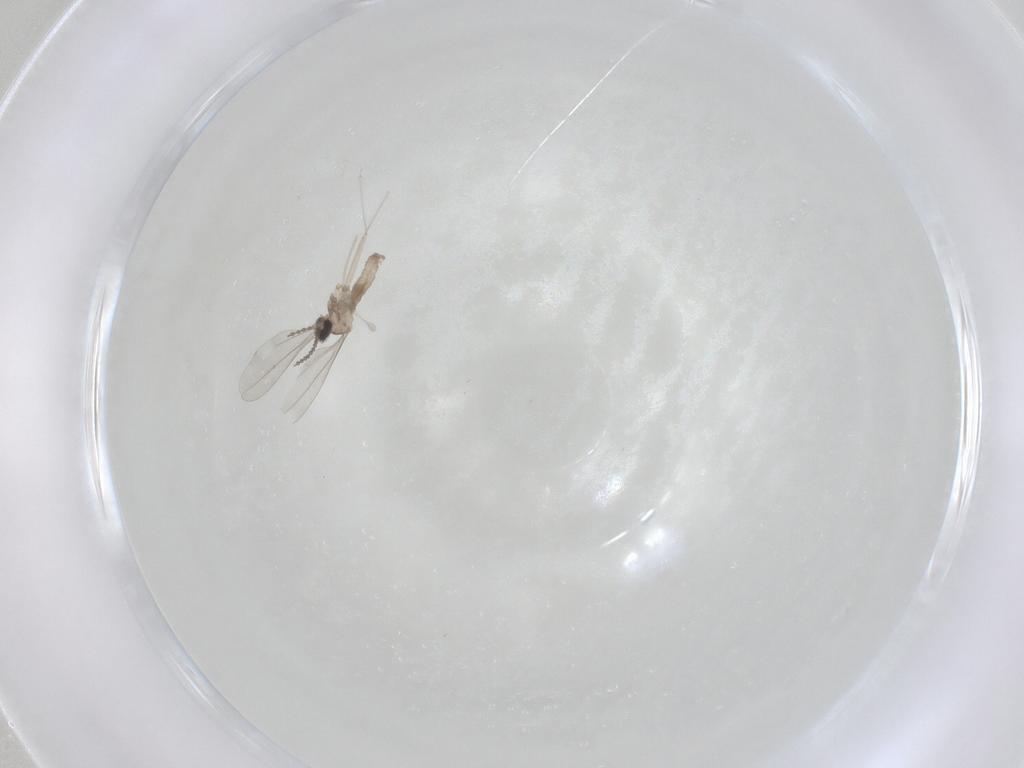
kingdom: Animalia
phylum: Arthropoda
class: Insecta
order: Diptera
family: Cecidomyiidae
